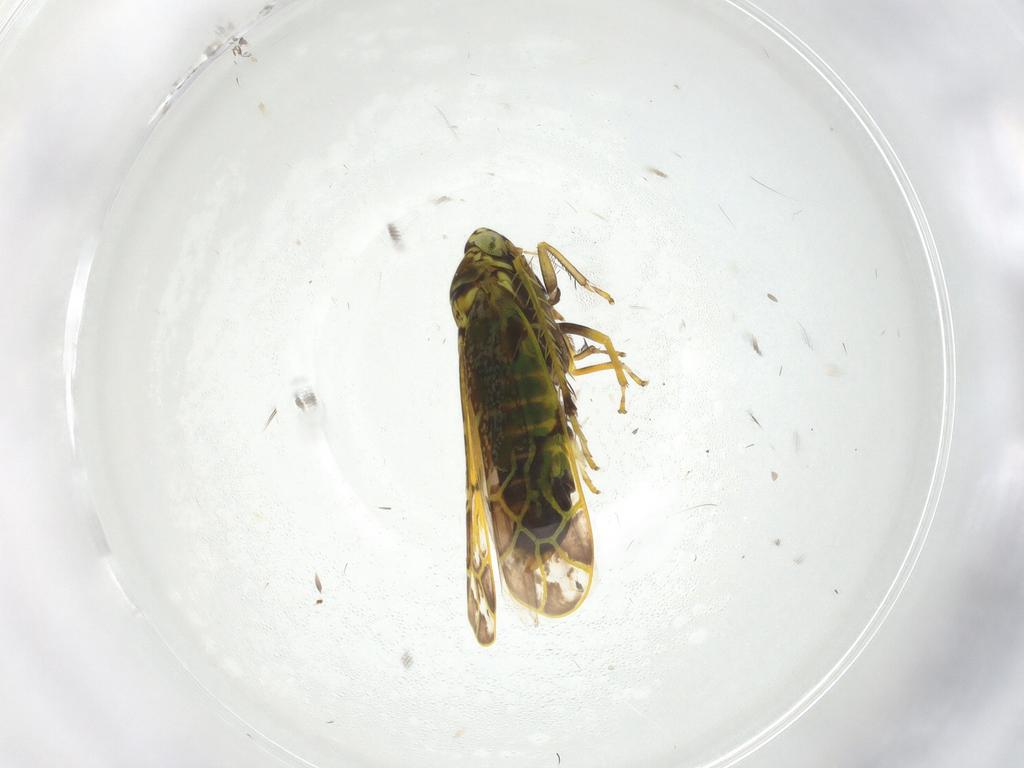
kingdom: Animalia
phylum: Arthropoda
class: Insecta
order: Hemiptera
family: Cicadellidae
